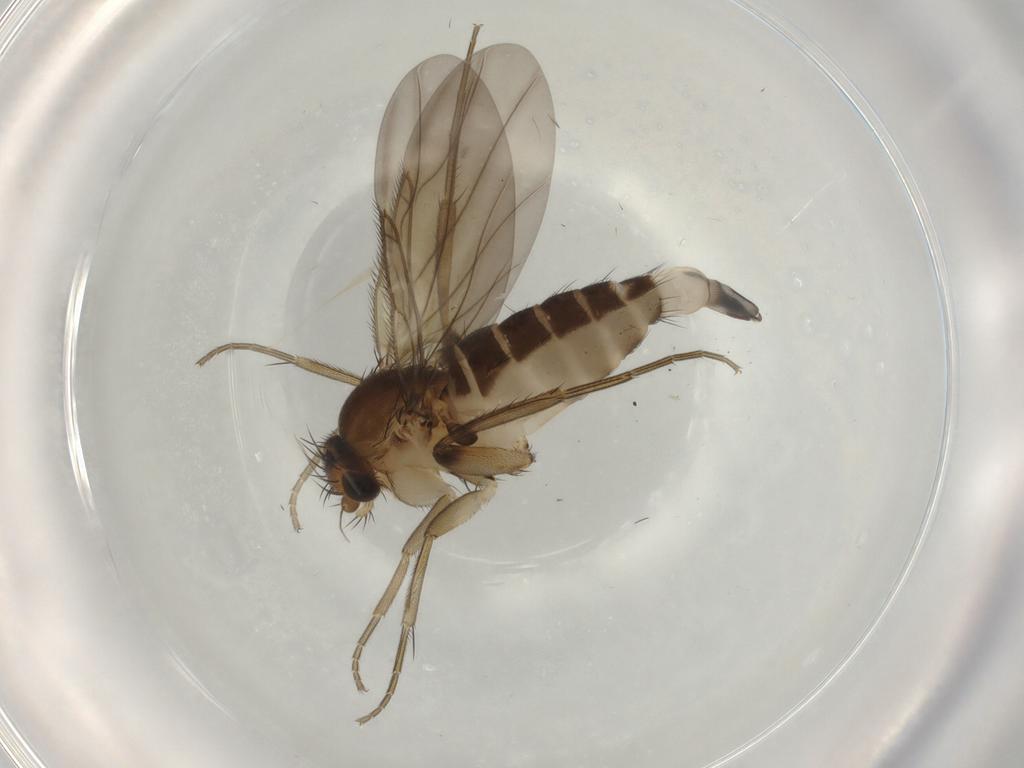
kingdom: Animalia
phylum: Arthropoda
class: Insecta
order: Diptera
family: Phoridae
